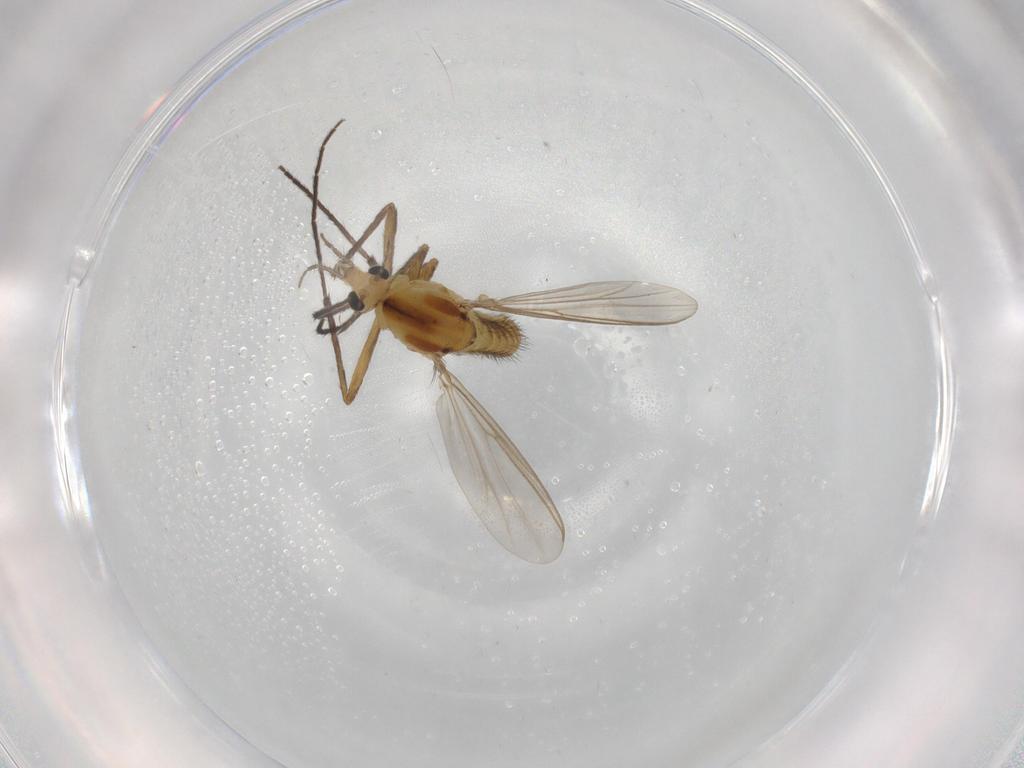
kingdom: Animalia
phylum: Arthropoda
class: Insecta
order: Diptera
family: Chironomidae
